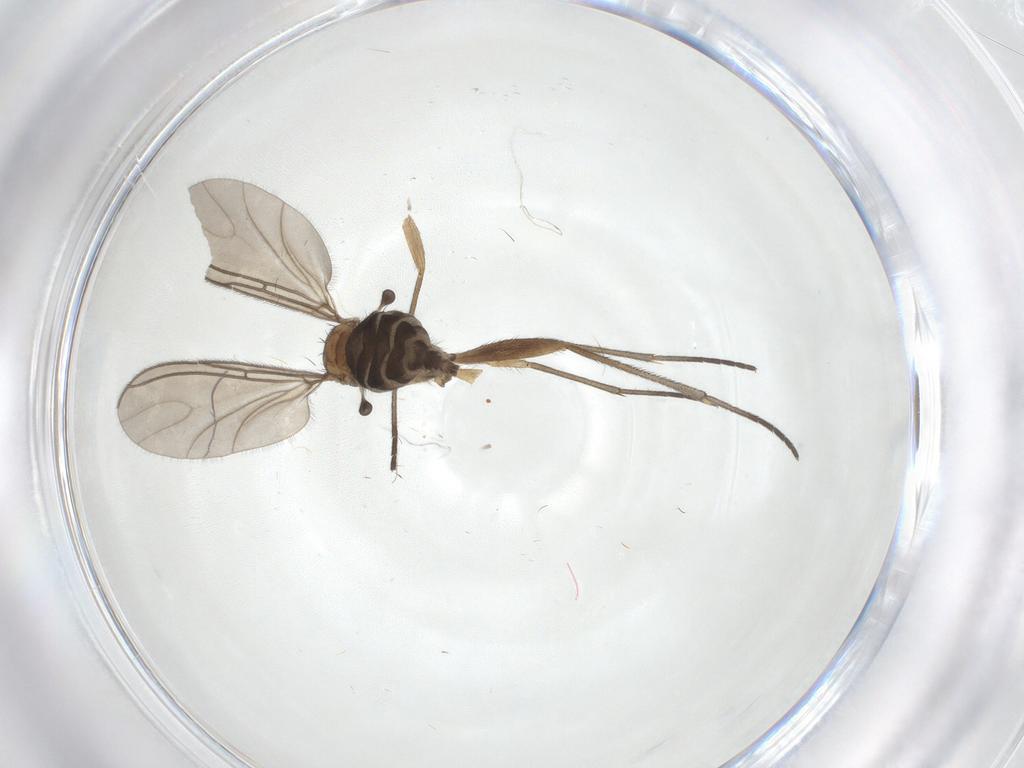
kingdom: Animalia
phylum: Arthropoda
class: Insecta
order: Diptera
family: Sciaridae
